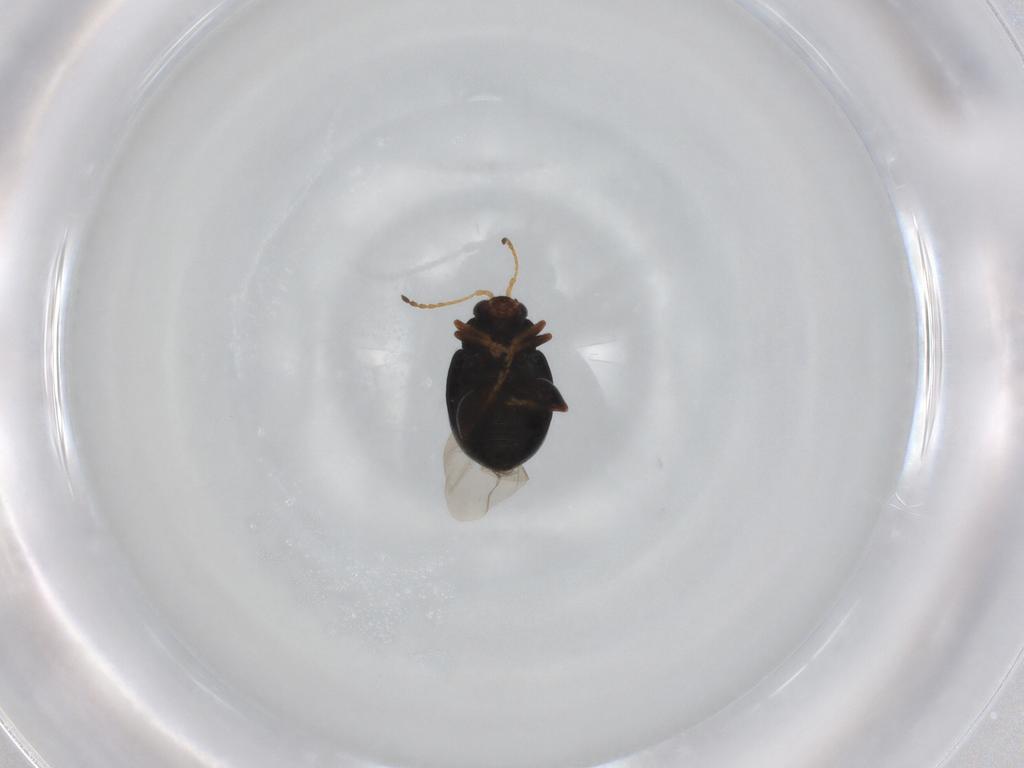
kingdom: Animalia
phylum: Arthropoda
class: Insecta
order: Coleoptera
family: Chrysomelidae
